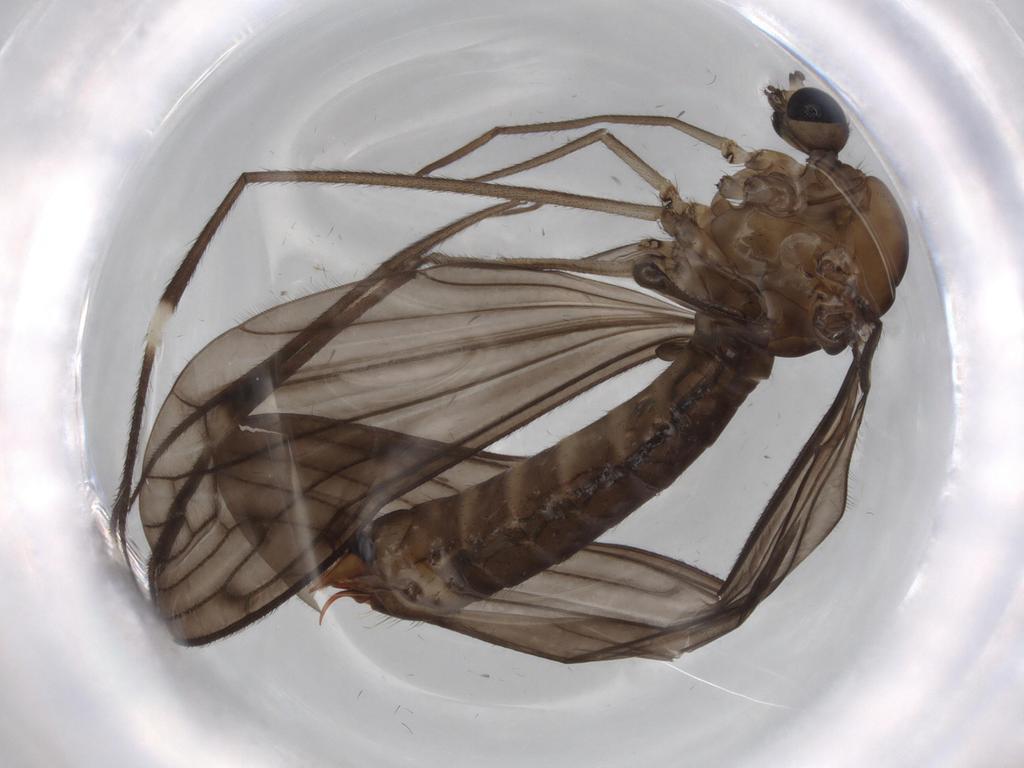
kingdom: Animalia
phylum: Arthropoda
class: Insecta
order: Diptera
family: Limoniidae
